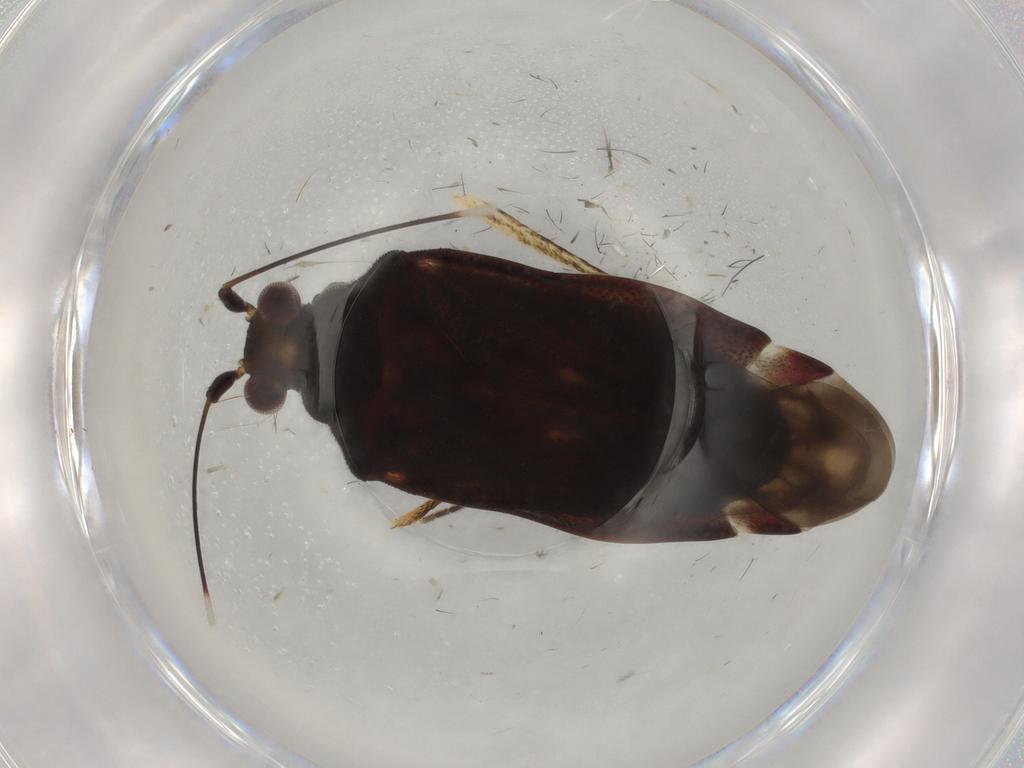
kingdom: Animalia
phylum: Arthropoda
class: Insecta
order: Hemiptera
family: Miridae
